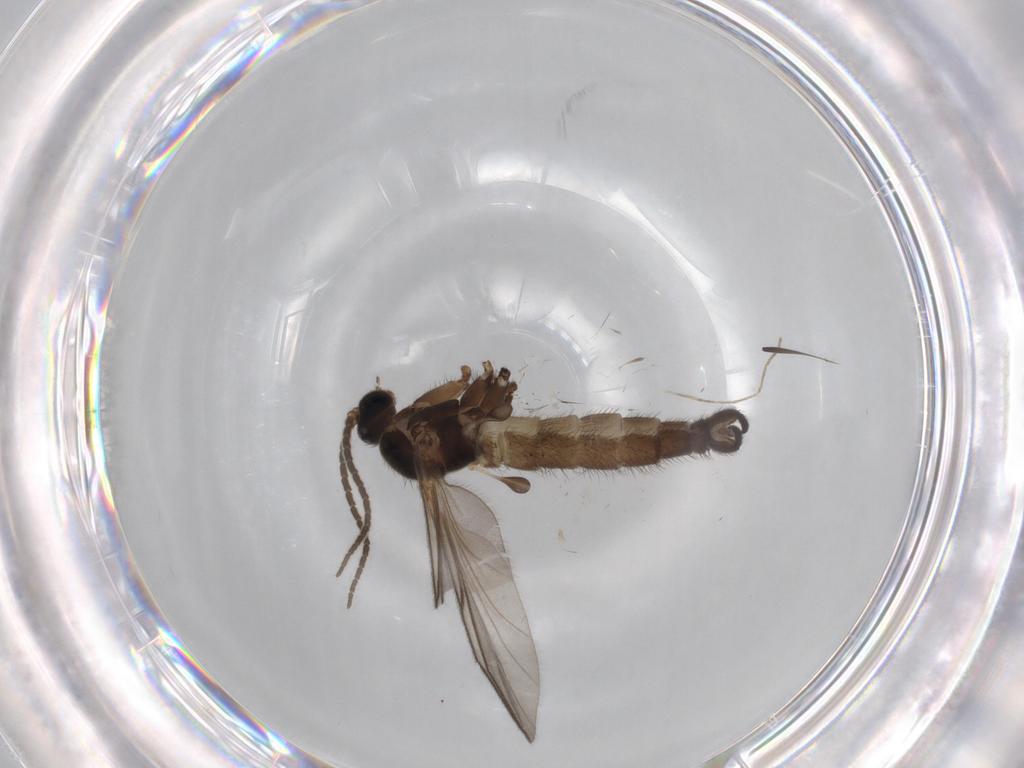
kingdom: Animalia
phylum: Arthropoda
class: Insecta
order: Diptera
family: Sciaridae
